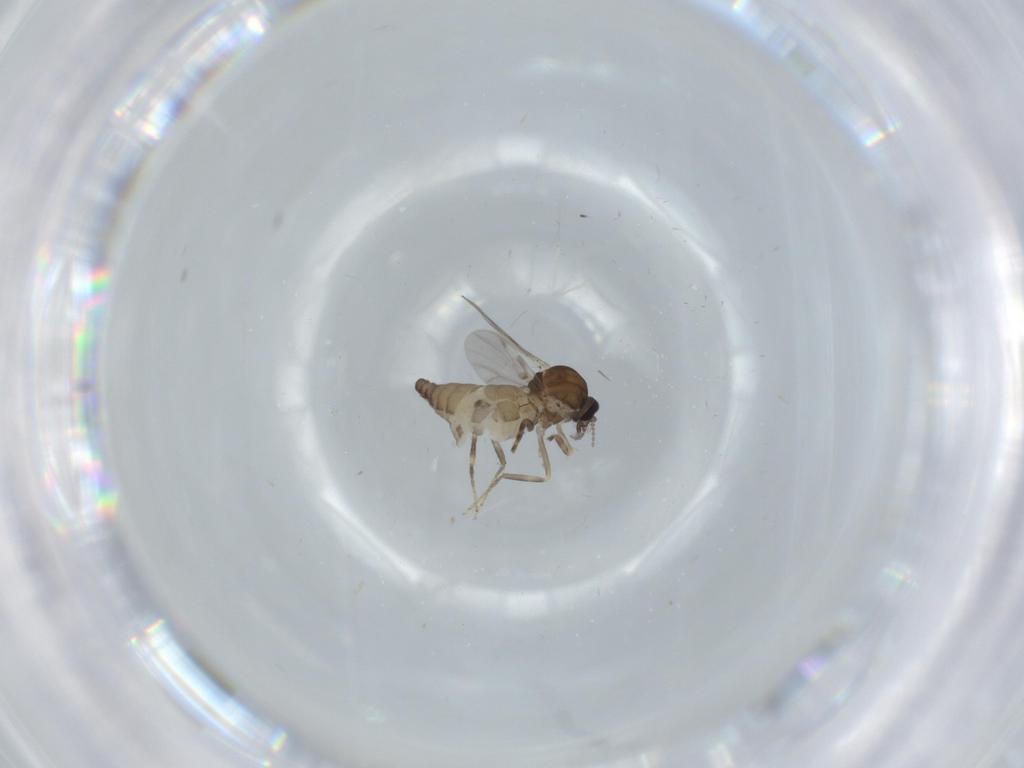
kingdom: Animalia
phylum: Arthropoda
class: Insecta
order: Diptera
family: Ceratopogonidae
